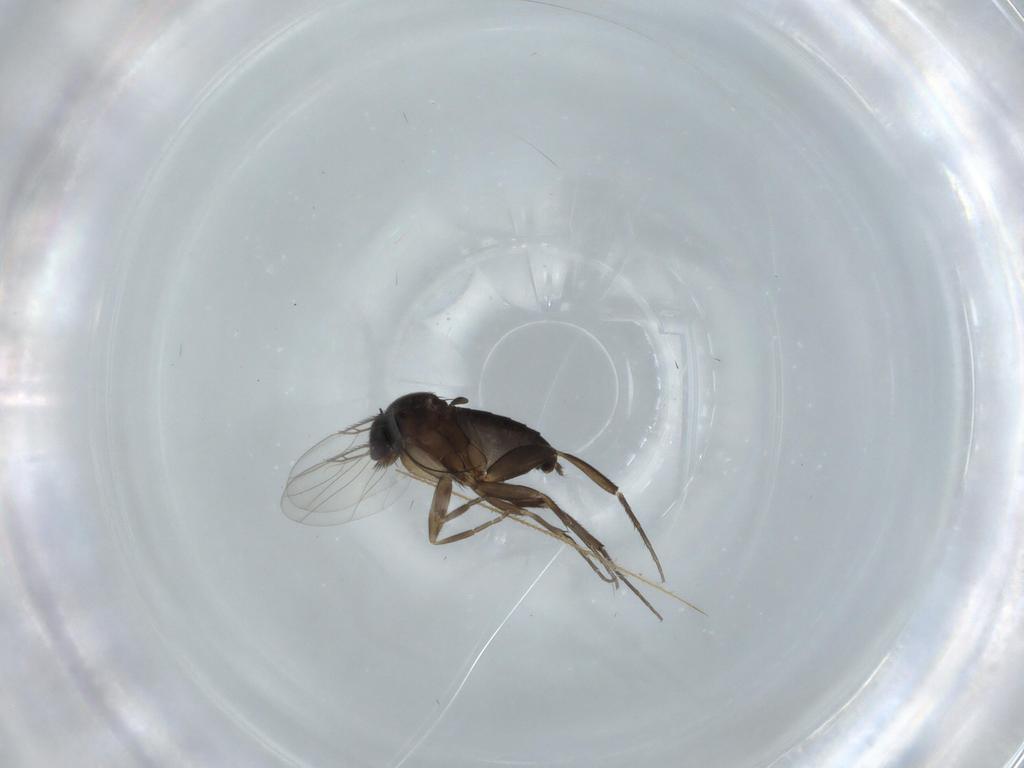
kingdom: Animalia
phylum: Arthropoda
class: Insecta
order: Diptera
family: Phoridae
